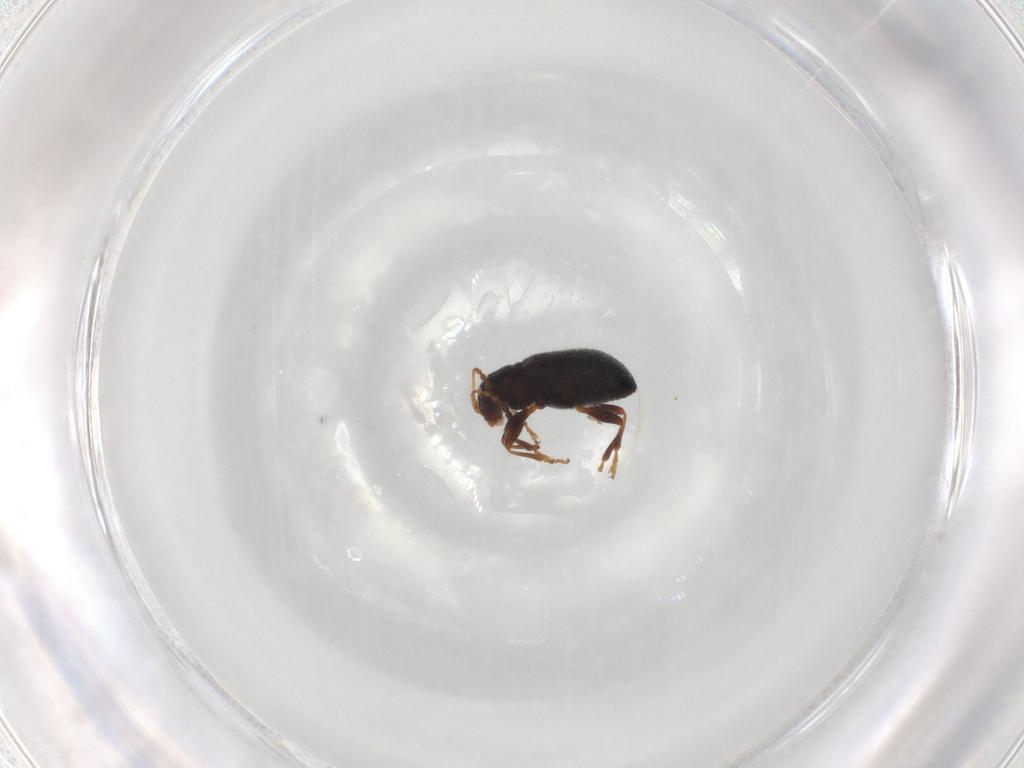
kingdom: Animalia
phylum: Arthropoda
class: Insecta
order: Coleoptera
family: Chrysomelidae
